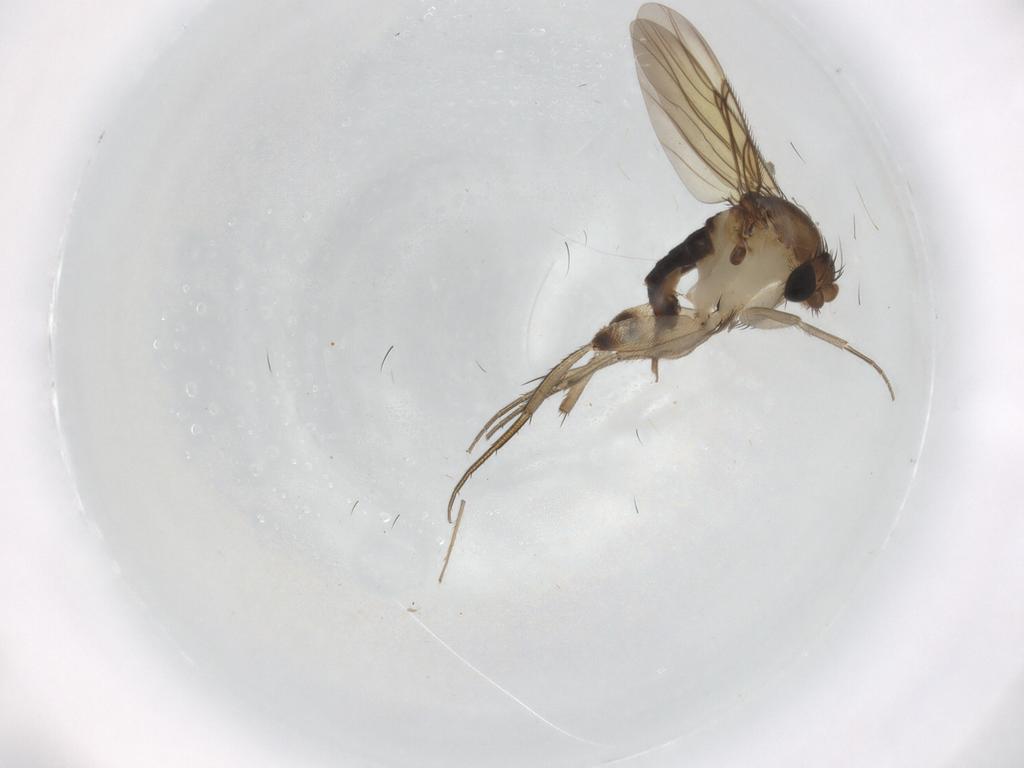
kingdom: Animalia
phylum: Arthropoda
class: Insecta
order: Diptera
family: Phoridae
